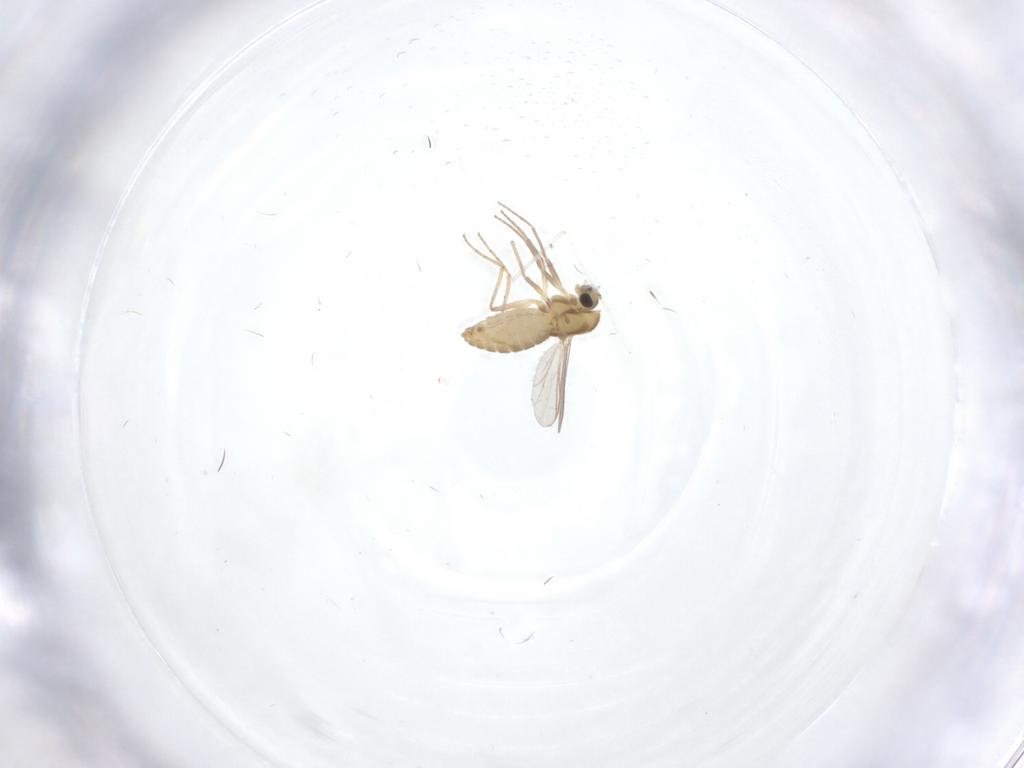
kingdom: Animalia
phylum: Arthropoda
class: Insecta
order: Diptera
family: Chironomidae
